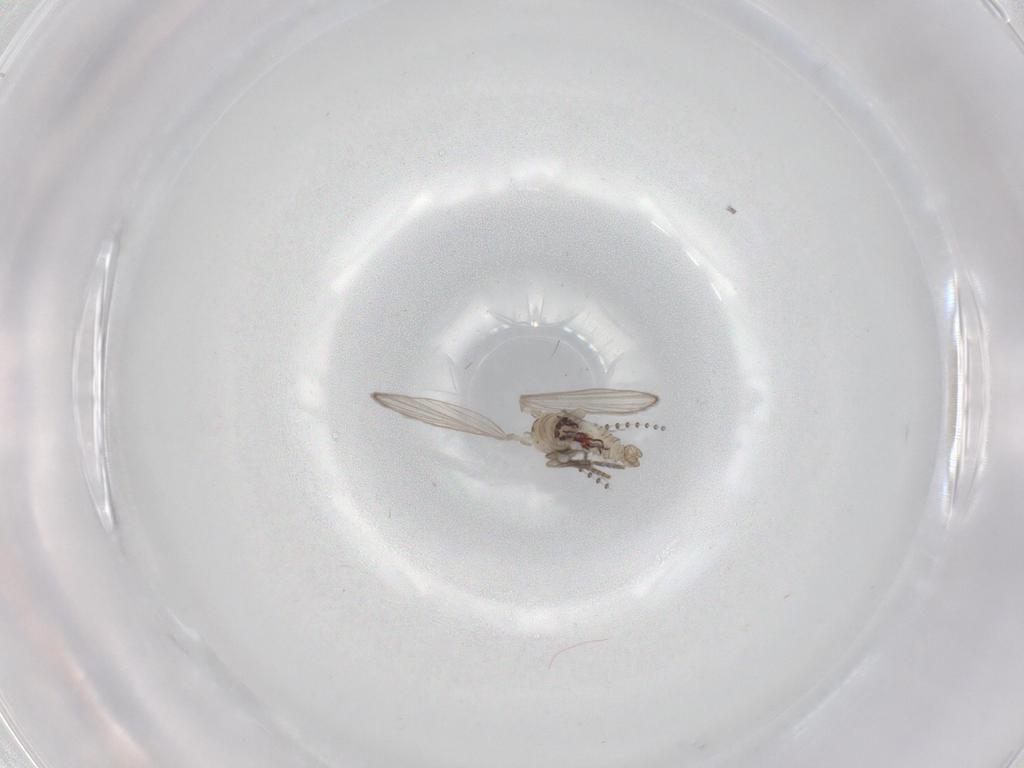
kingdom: Animalia
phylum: Arthropoda
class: Insecta
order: Diptera
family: Psychodidae
